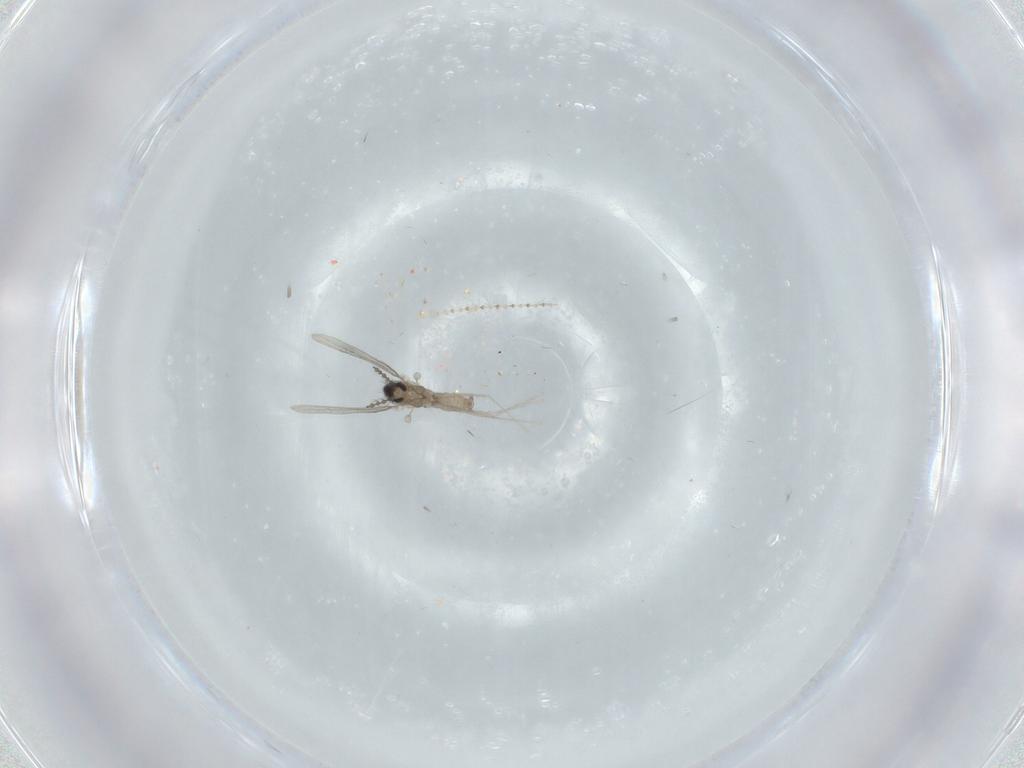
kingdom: Animalia
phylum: Arthropoda
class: Insecta
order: Diptera
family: Cecidomyiidae
